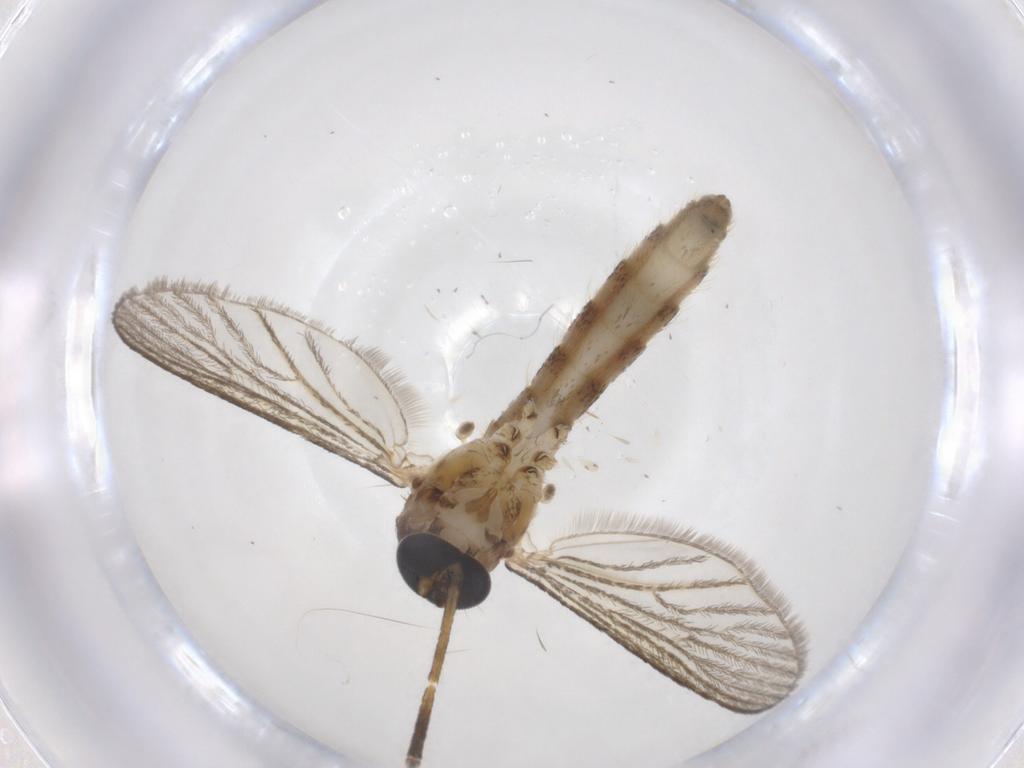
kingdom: Animalia
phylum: Arthropoda
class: Insecta
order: Diptera
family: Sciaridae
